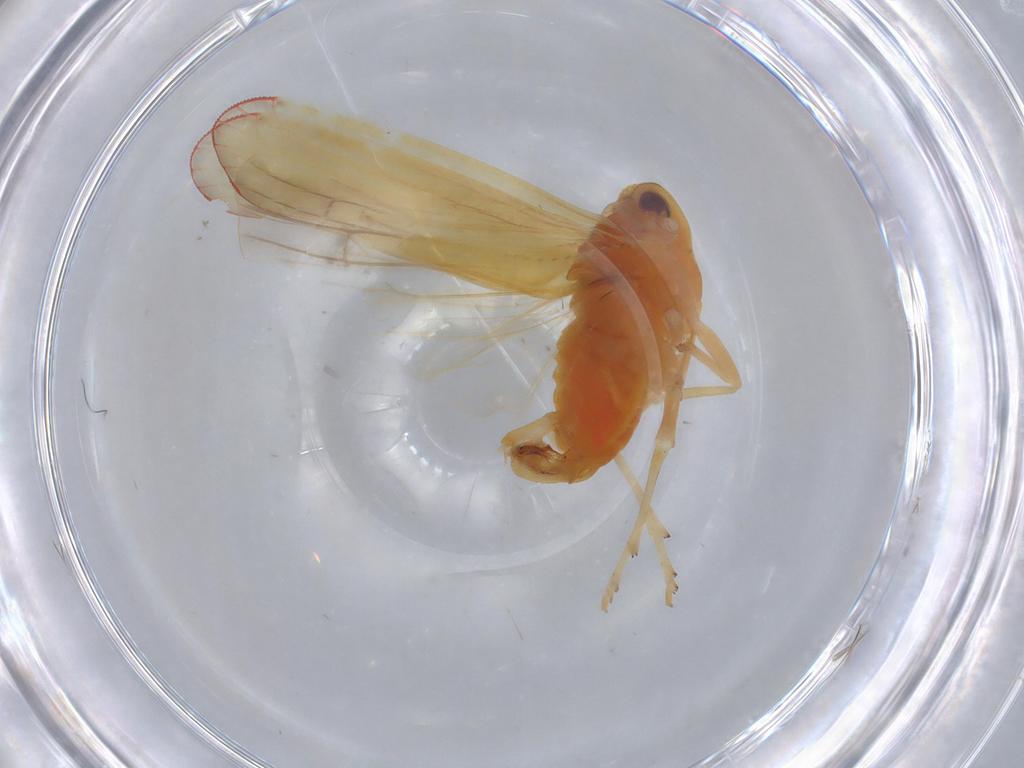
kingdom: Animalia
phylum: Arthropoda
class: Insecta
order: Hemiptera
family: Derbidae
